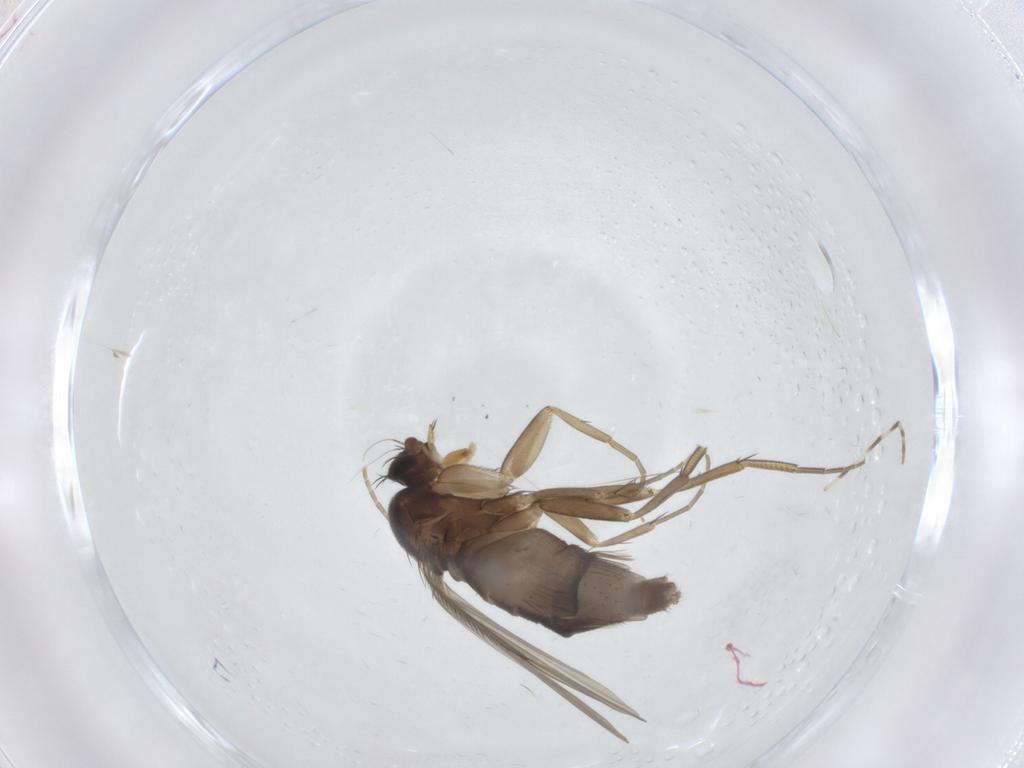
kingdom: Animalia
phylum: Arthropoda
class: Insecta
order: Diptera
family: Phoridae
